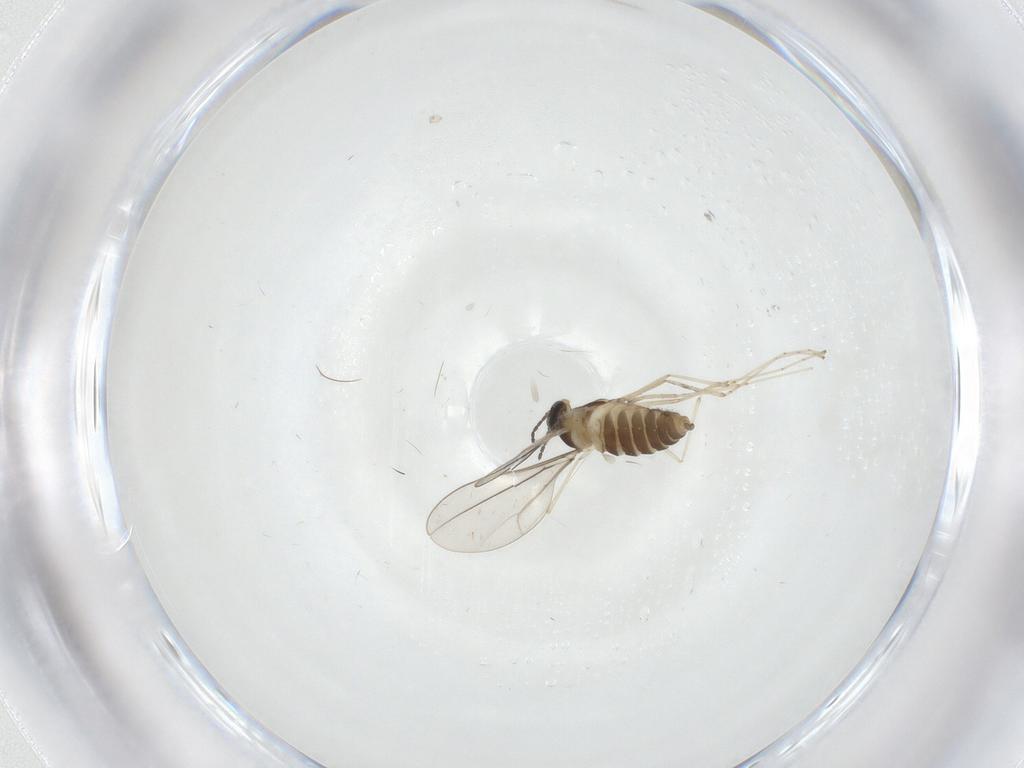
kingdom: Animalia
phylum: Arthropoda
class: Insecta
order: Diptera
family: Cecidomyiidae
